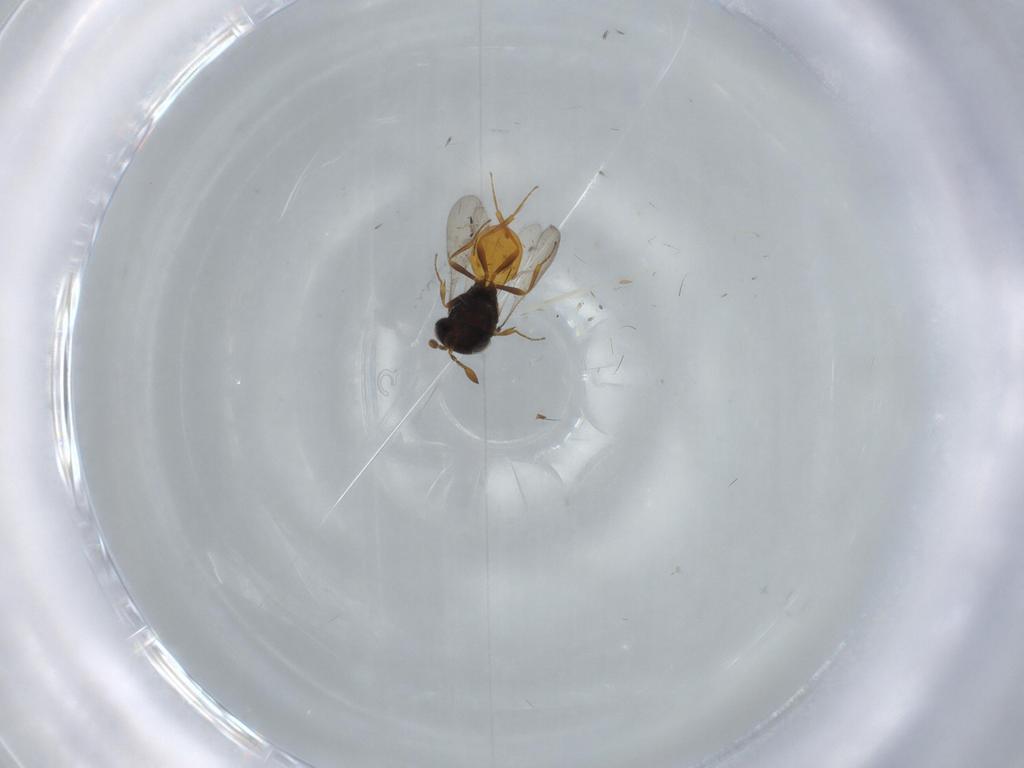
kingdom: Animalia
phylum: Arthropoda
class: Insecta
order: Hymenoptera
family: Scelionidae
